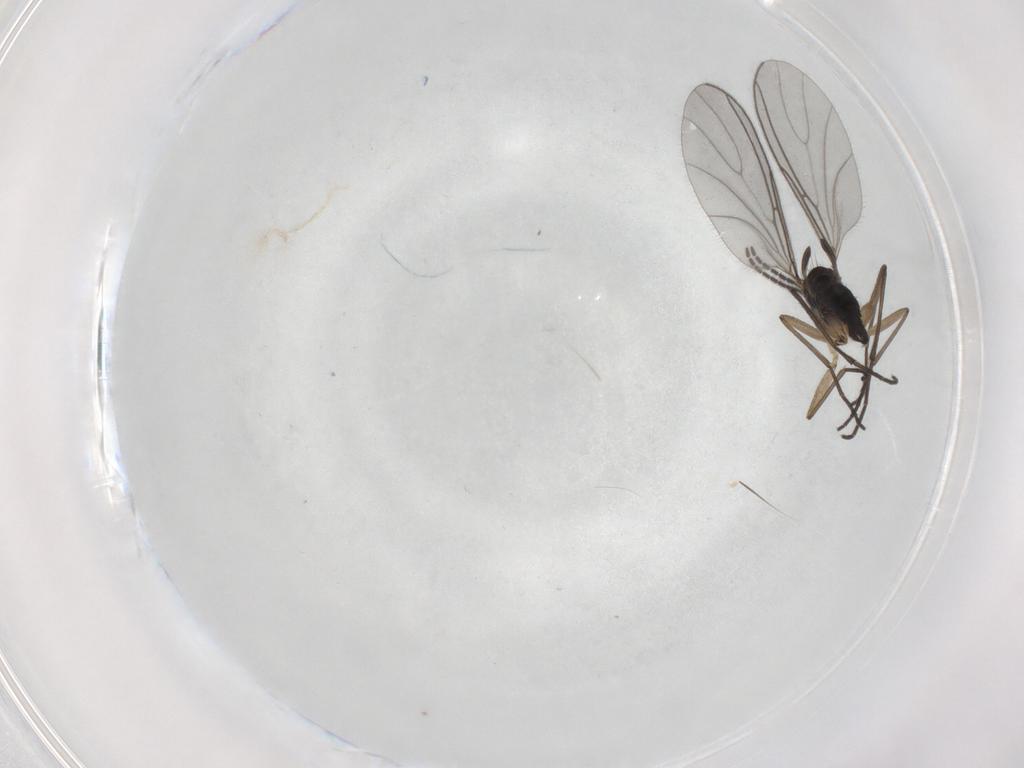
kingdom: Animalia
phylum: Arthropoda
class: Insecta
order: Diptera
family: Sciaridae
